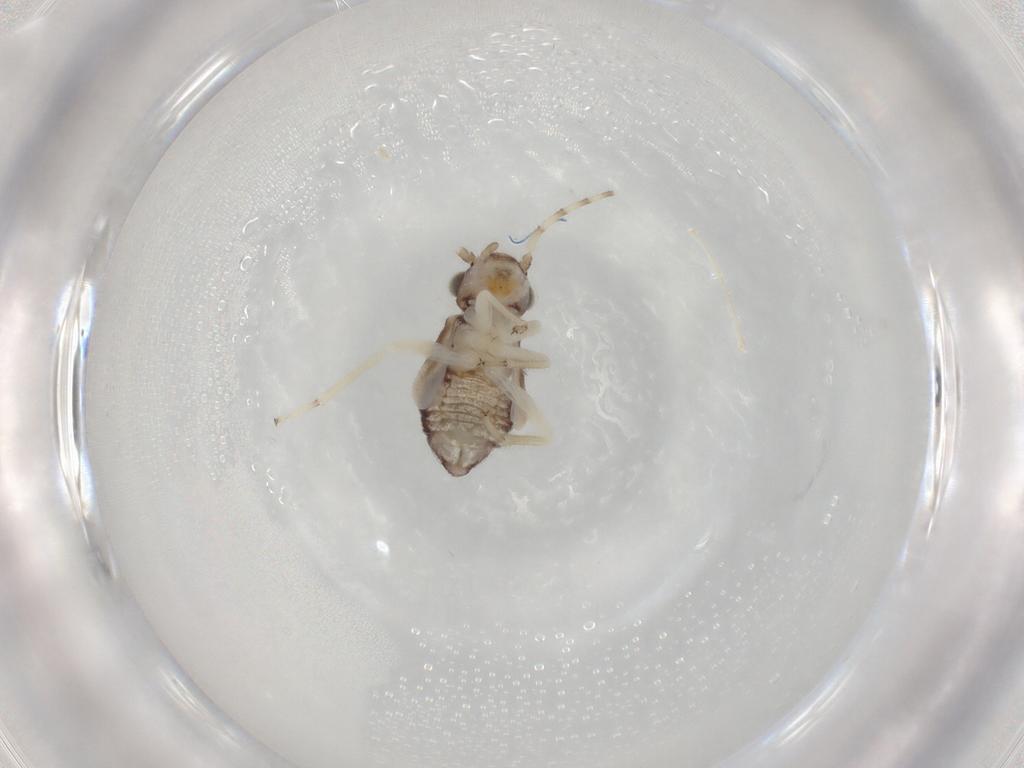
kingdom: Animalia
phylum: Arthropoda
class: Insecta
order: Psocodea
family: Myopsocidae
